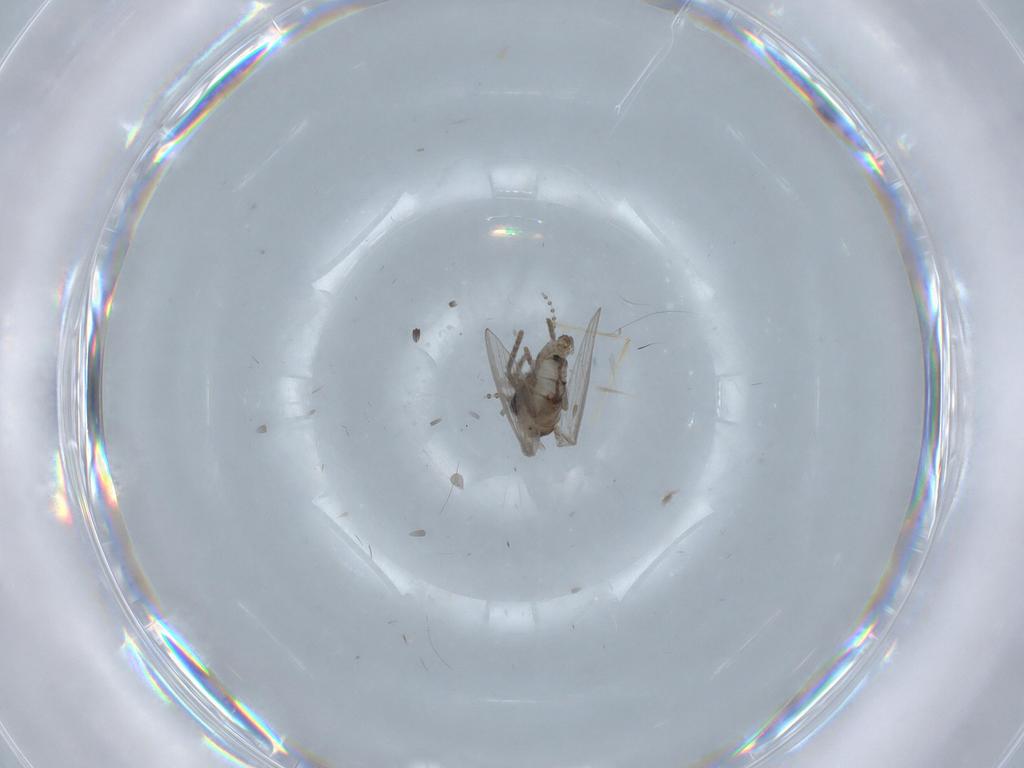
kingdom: Animalia
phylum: Arthropoda
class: Insecta
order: Diptera
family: Psychodidae
